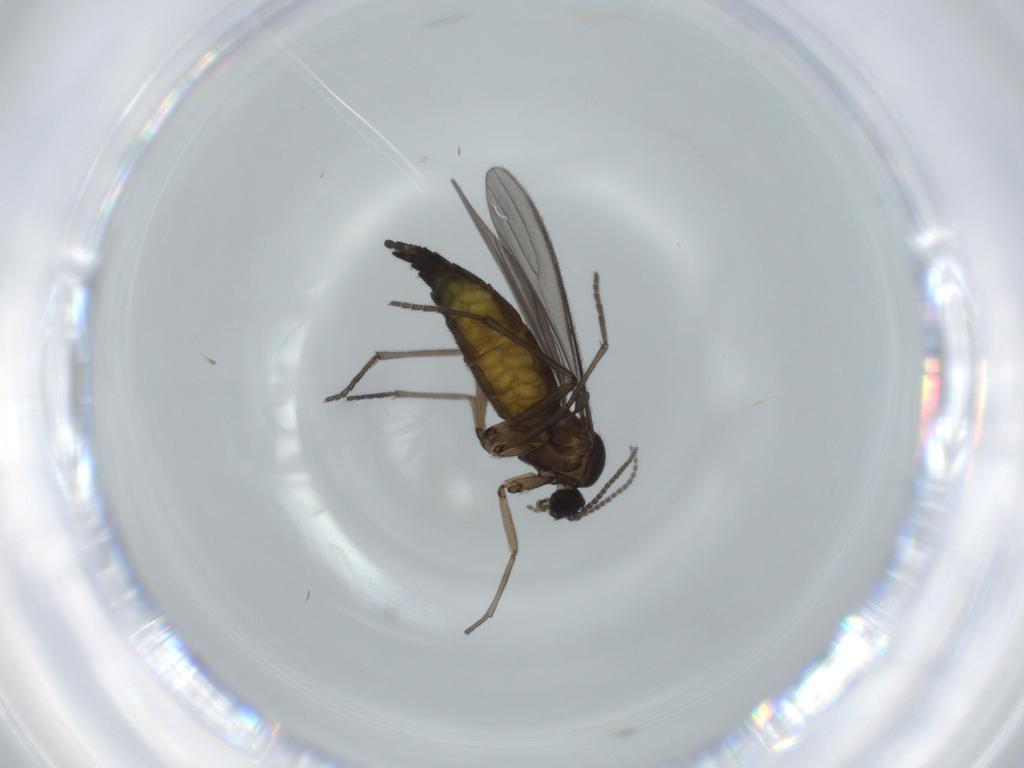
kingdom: Animalia
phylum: Arthropoda
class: Insecta
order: Diptera
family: Sciaridae
